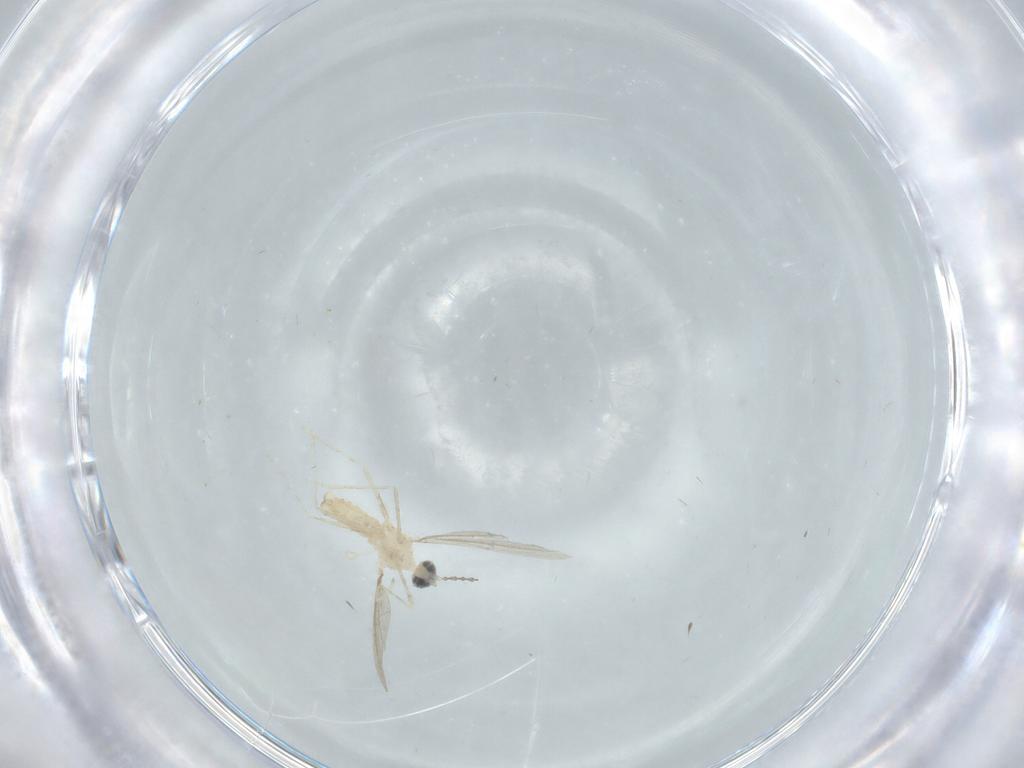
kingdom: Animalia
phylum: Arthropoda
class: Insecta
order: Diptera
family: Cecidomyiidae
